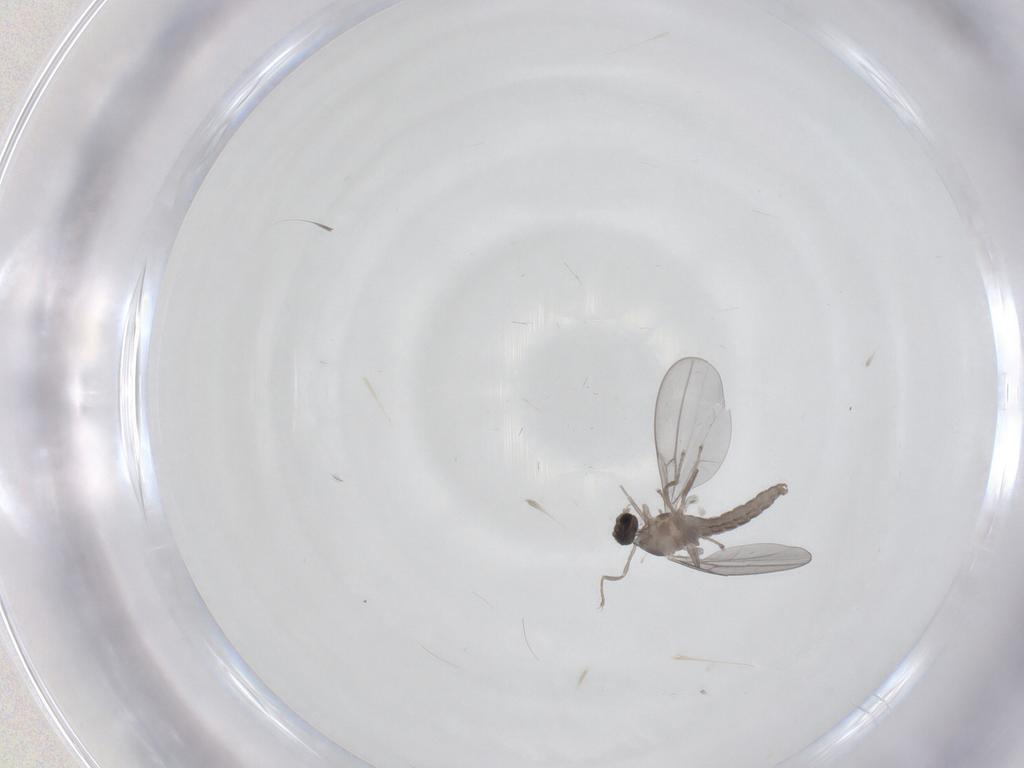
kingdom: Animalia
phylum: Arthropoda
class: Insecta
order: Diptera
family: Cecidomyiidae
